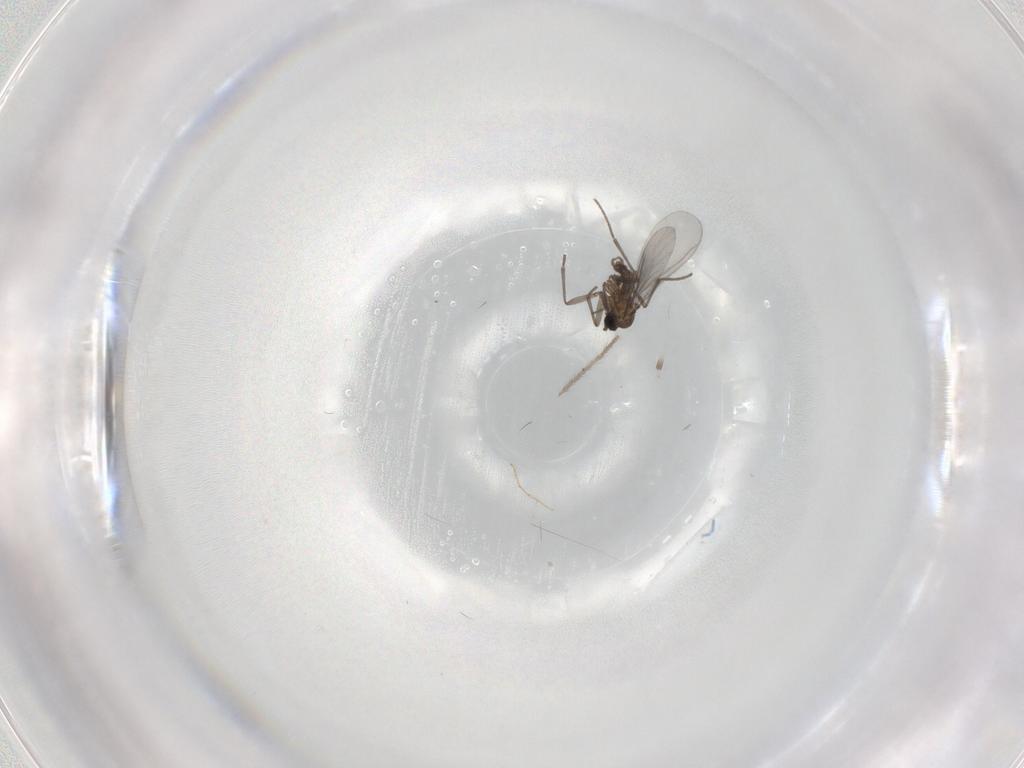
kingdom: Animalia
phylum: Arthropoda
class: Insecta
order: Diptera
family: Sciaridae
